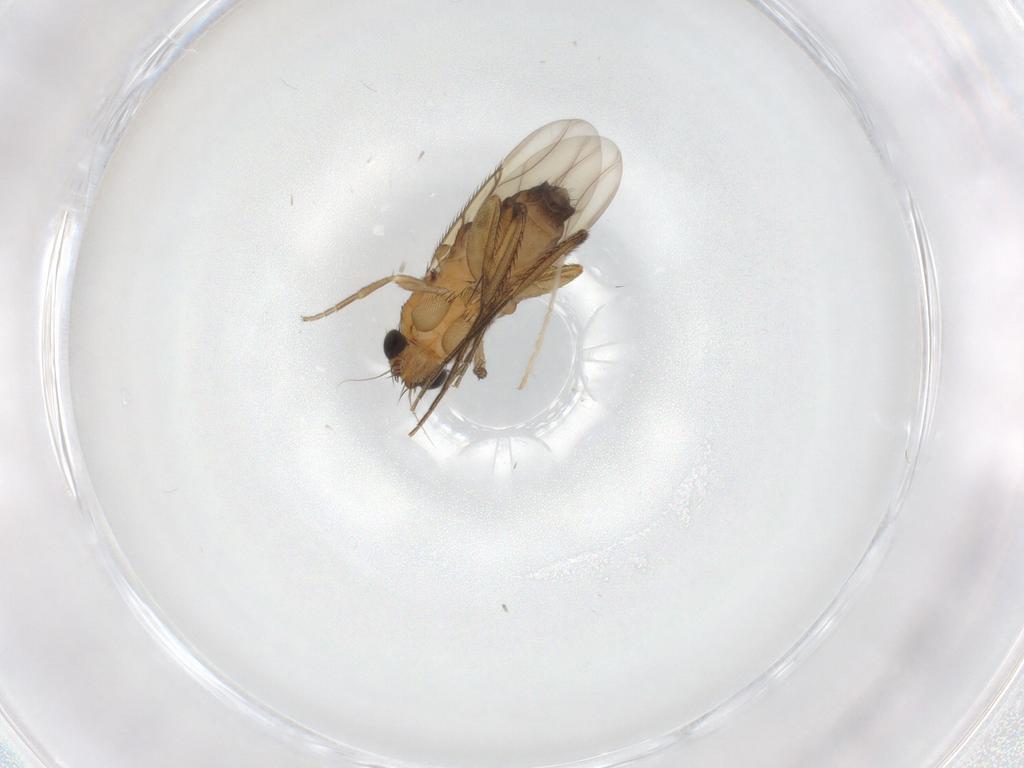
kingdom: Animalia
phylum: Arthropoda
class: Insecta
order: Diptera
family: Phoridae
